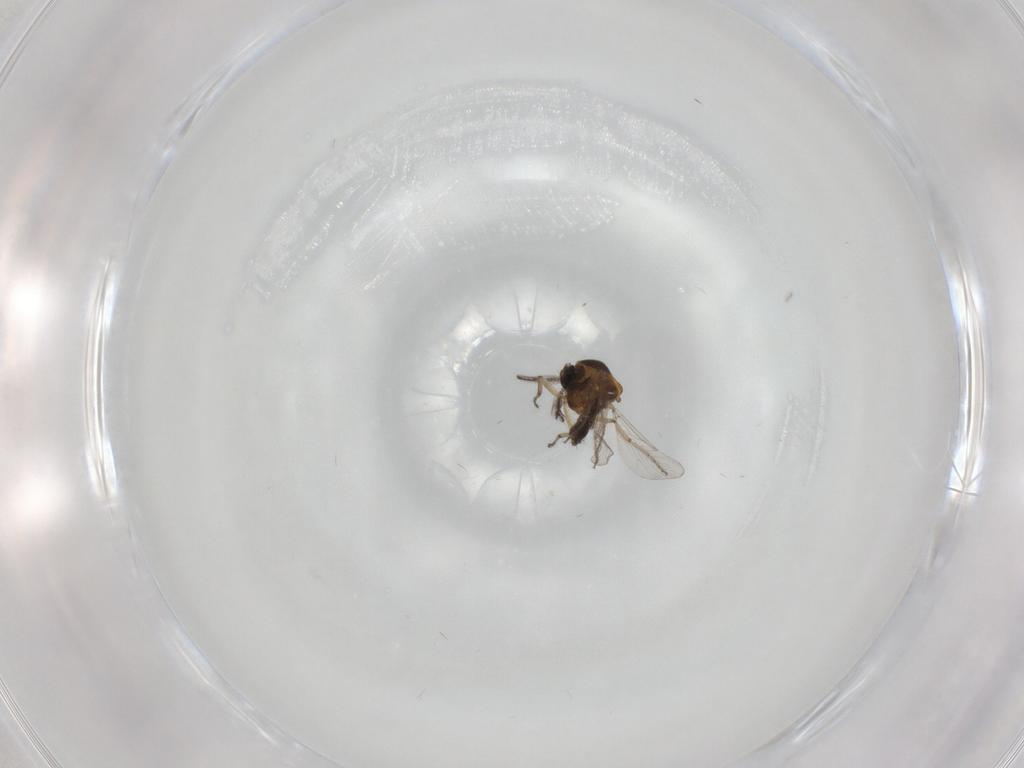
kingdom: Animalia
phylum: Arthropoda
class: Insecta
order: Diptera
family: Ceratopogonidae
